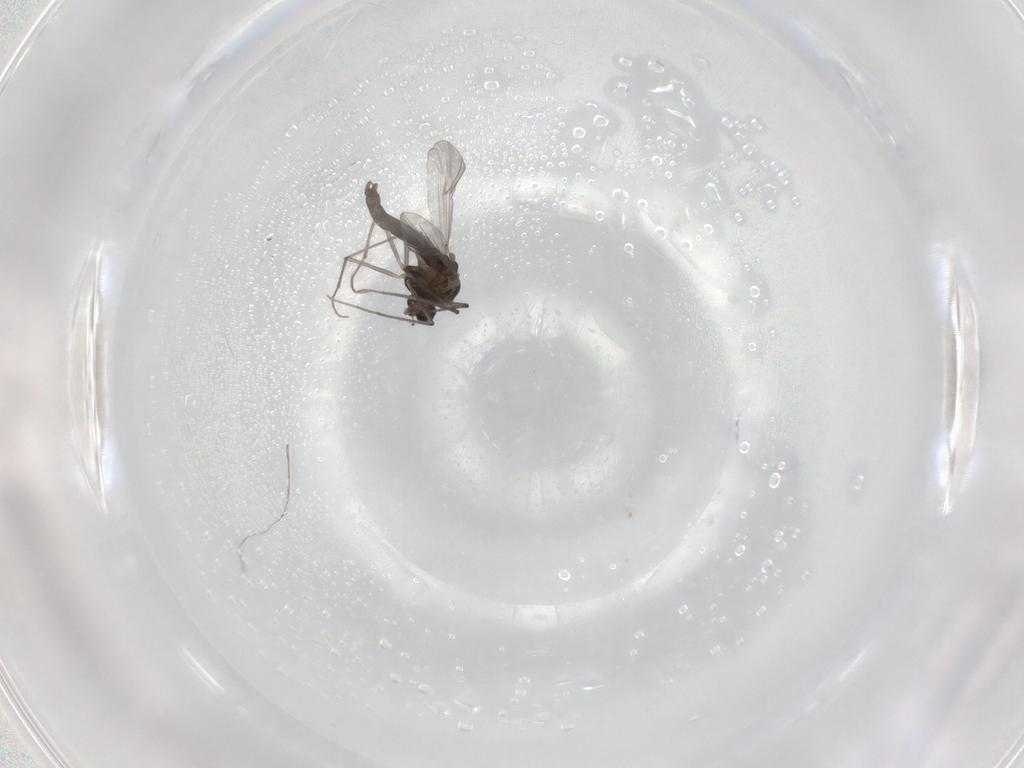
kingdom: Animalia
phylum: Arthropoda
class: Insecta
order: Diptera
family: Chironomidae
